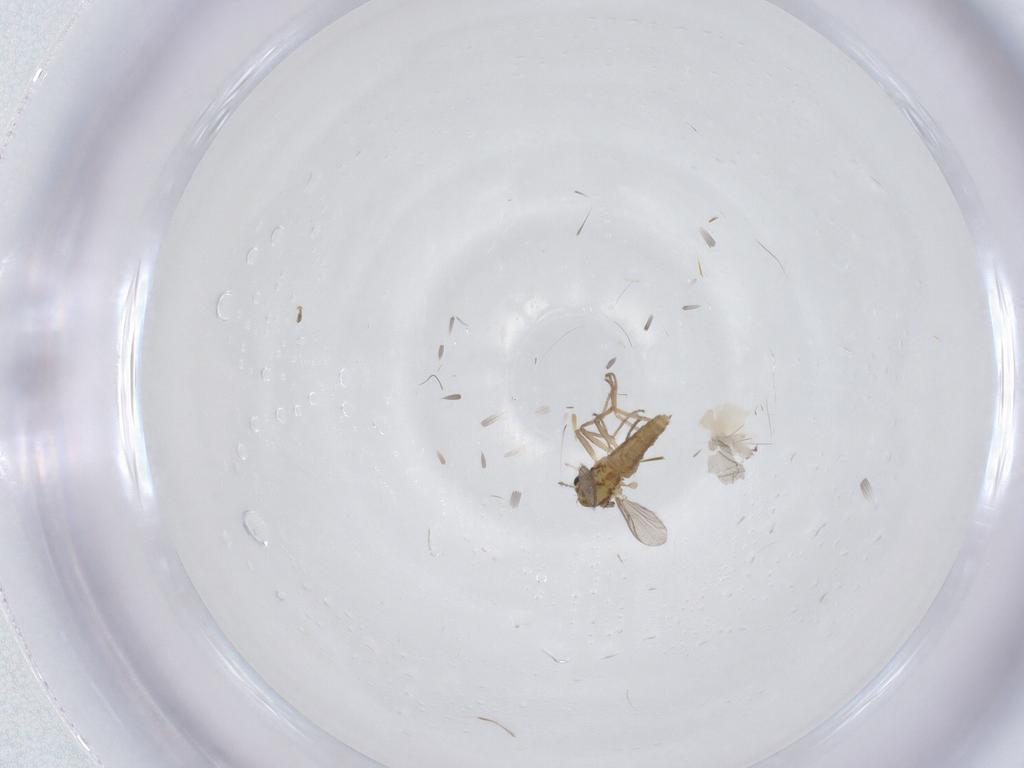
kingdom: Animalia
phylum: Arthropoda
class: Insecta
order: Diptera
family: Chironomidae
